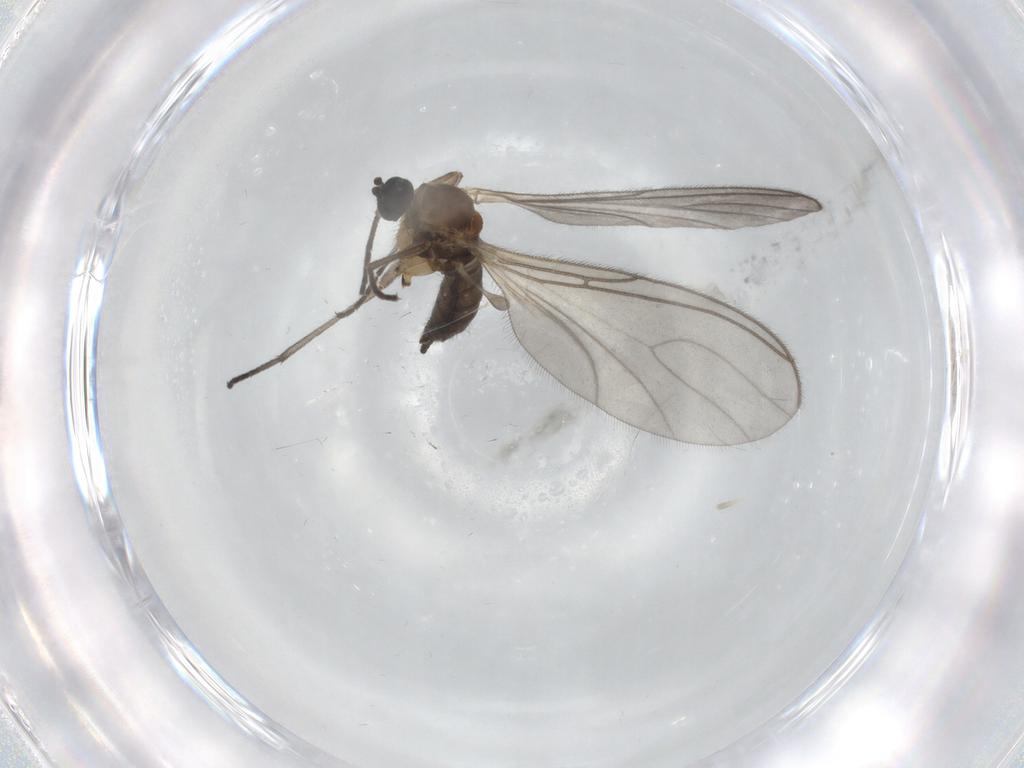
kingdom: Animalia
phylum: Arthropoda
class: Insecta
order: Diptera
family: Sciaridae
